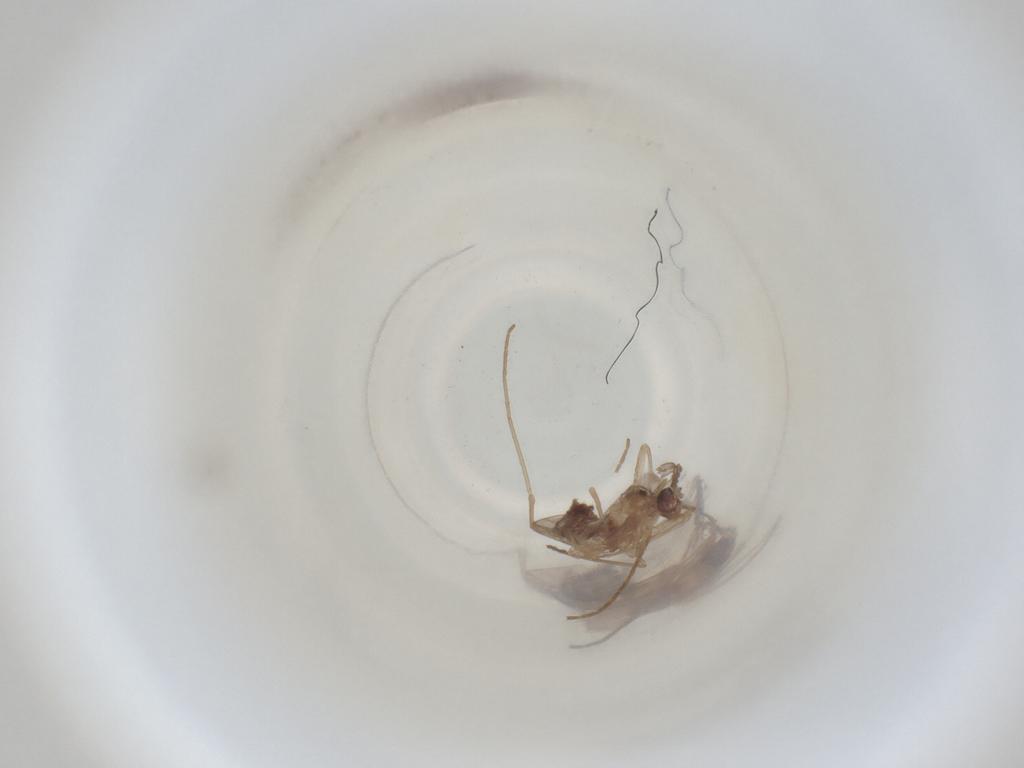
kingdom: Animalia
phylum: Arthropoda
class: Insecta
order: Diptera
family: Cecidomyiidae
